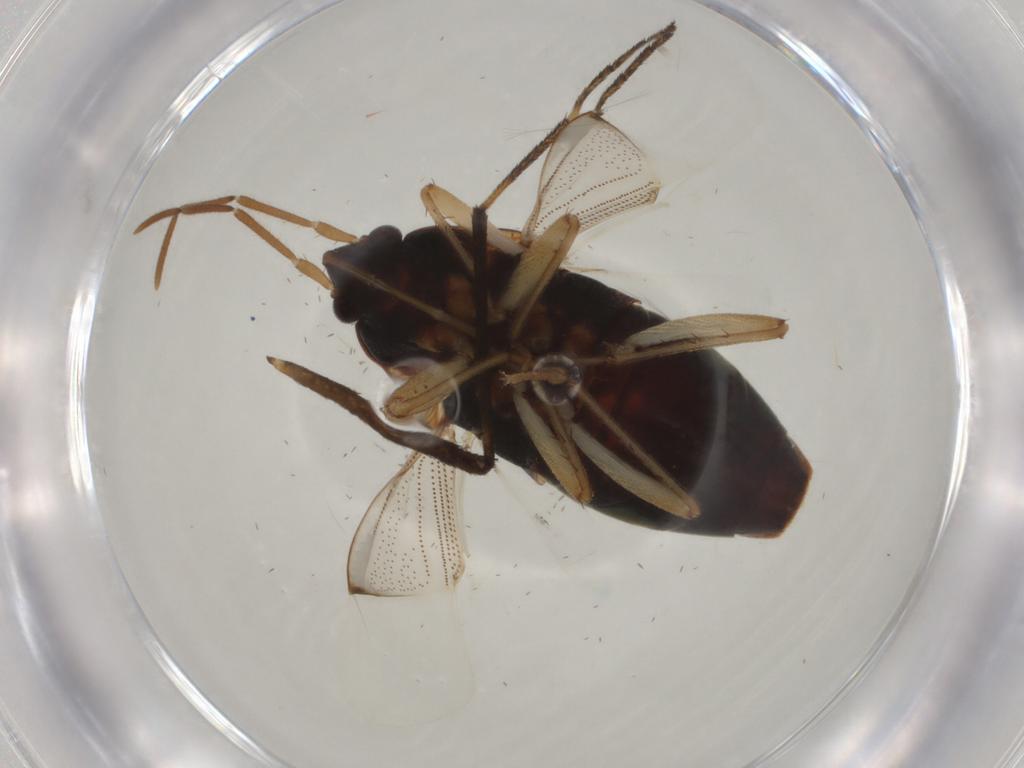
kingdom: Animalia
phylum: Arthropoda
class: Insecta
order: Hemiptera
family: Rhyparochromidae
